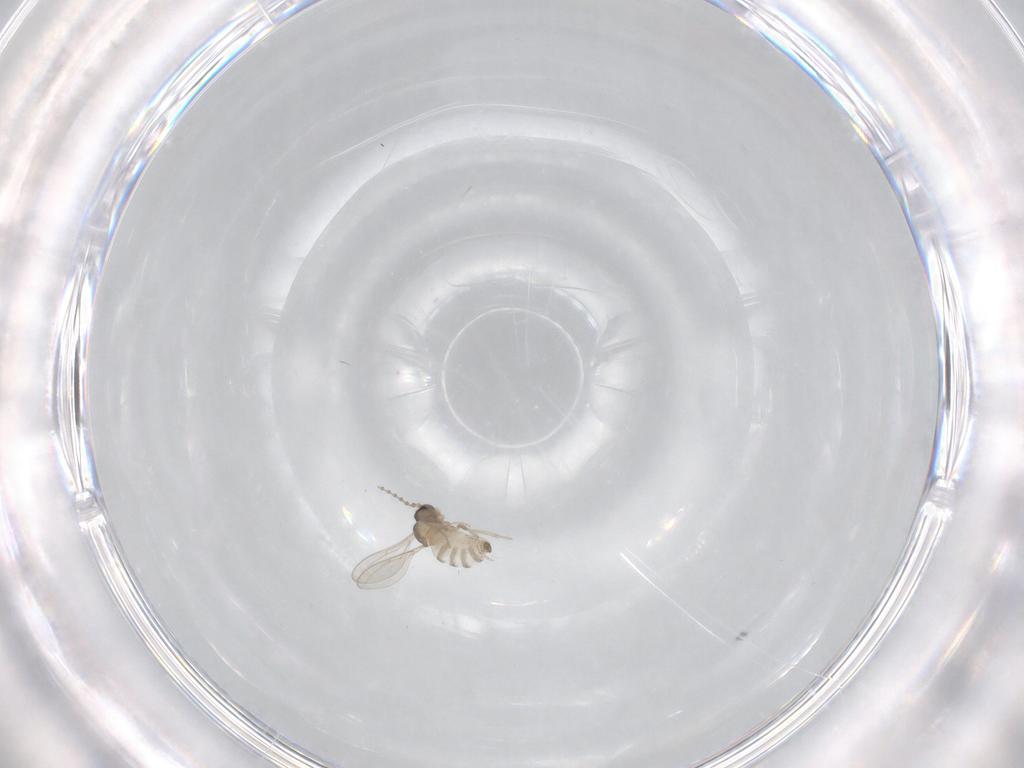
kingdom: Animalia
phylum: Arthropoda
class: Insecta
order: Diptera
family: Cecidomyiidae
